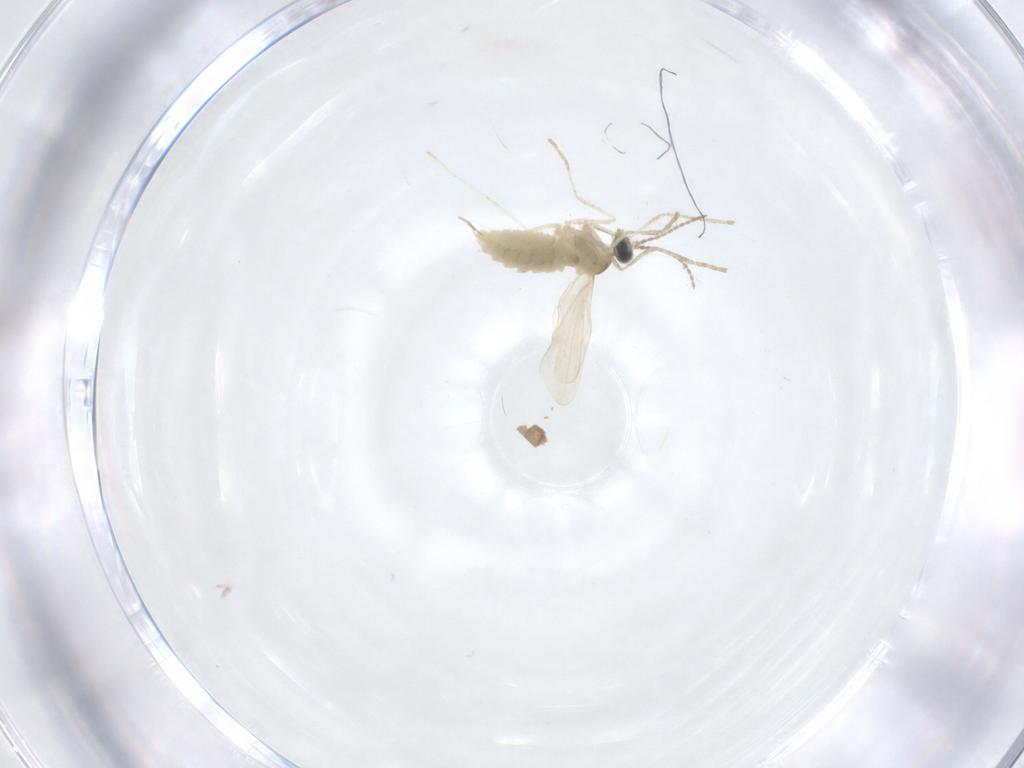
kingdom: Animalia
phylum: Arthropoda
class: Insecta
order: Diptera
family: Cecidomyiidae
